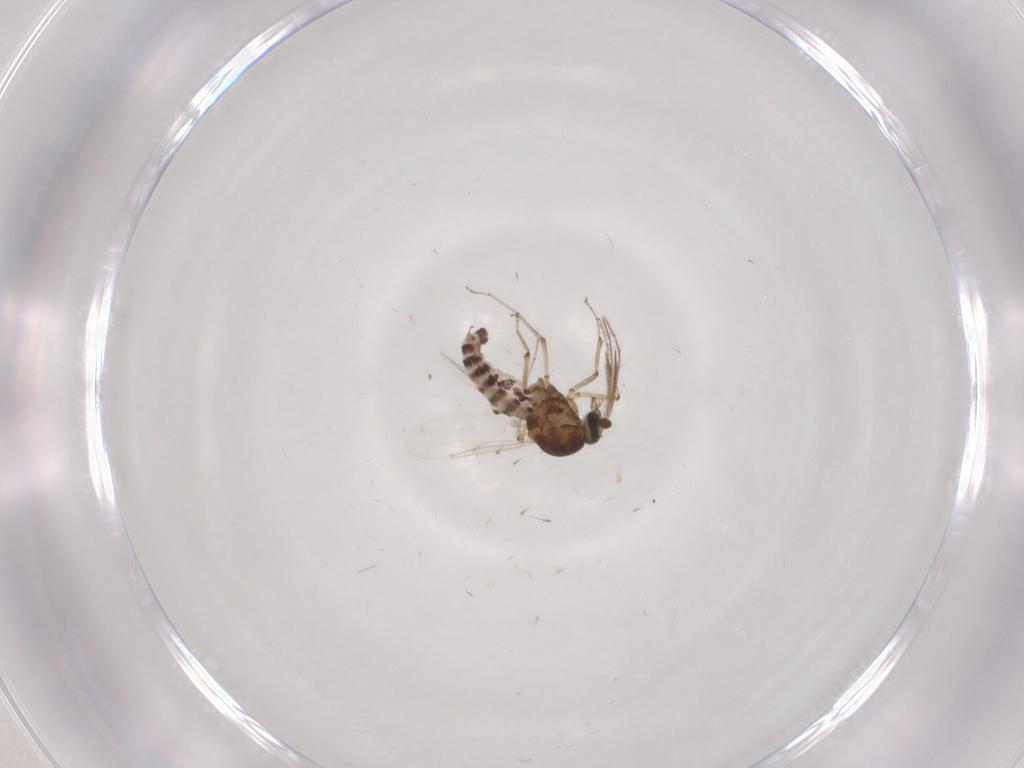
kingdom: Animalia
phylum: Arthropoda
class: Insecta
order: Diptera
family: Ceratopogonidae
